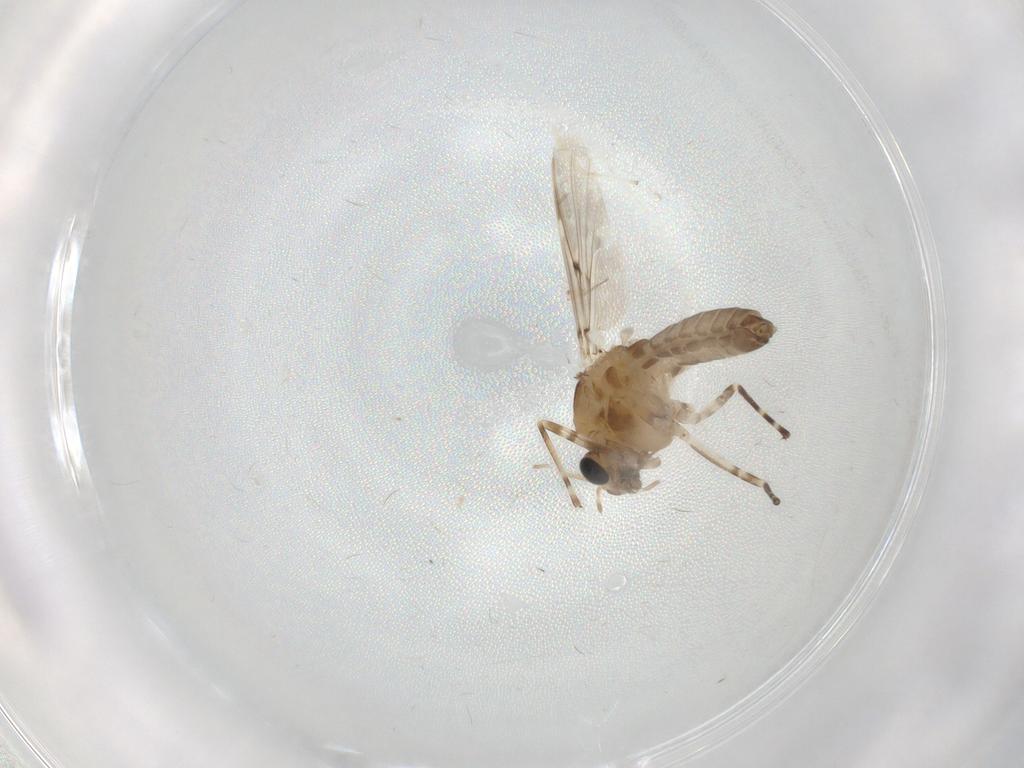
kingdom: Animalia
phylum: Arthropoda
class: Insecta
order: Diptera
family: Chironomidae
